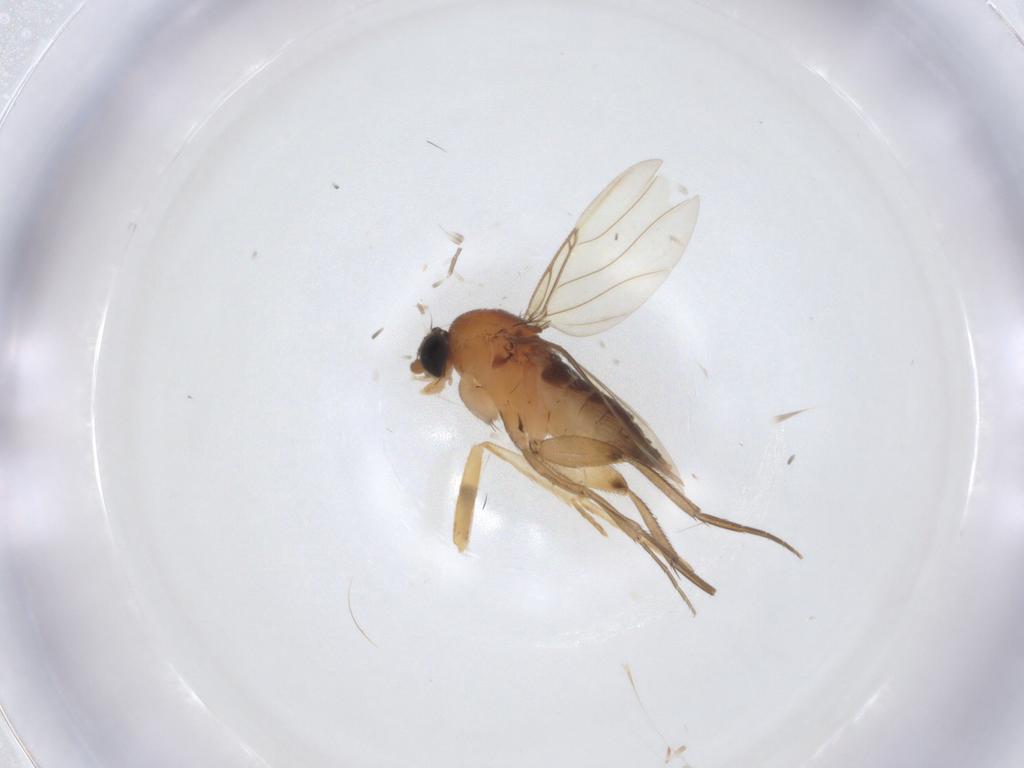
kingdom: Animalia
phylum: Arthropoda
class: Insecta
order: Diptera
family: Phoridae
